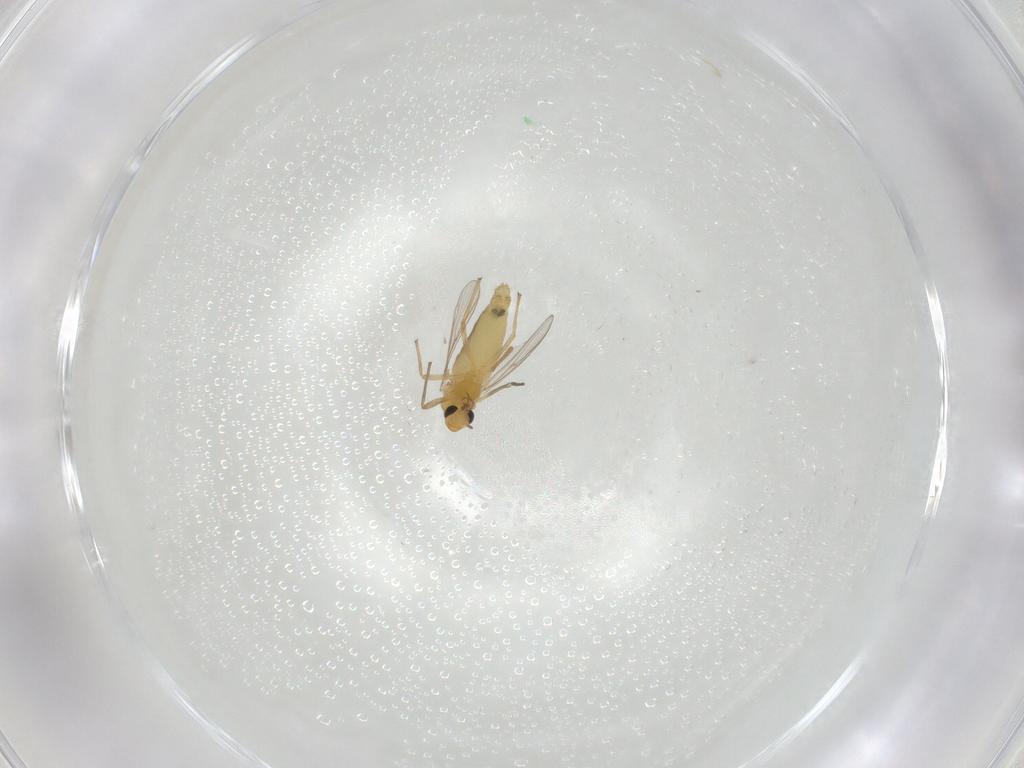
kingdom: Animalia
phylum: Arthropoda
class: Insecta
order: Diptera
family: Chironomidae
